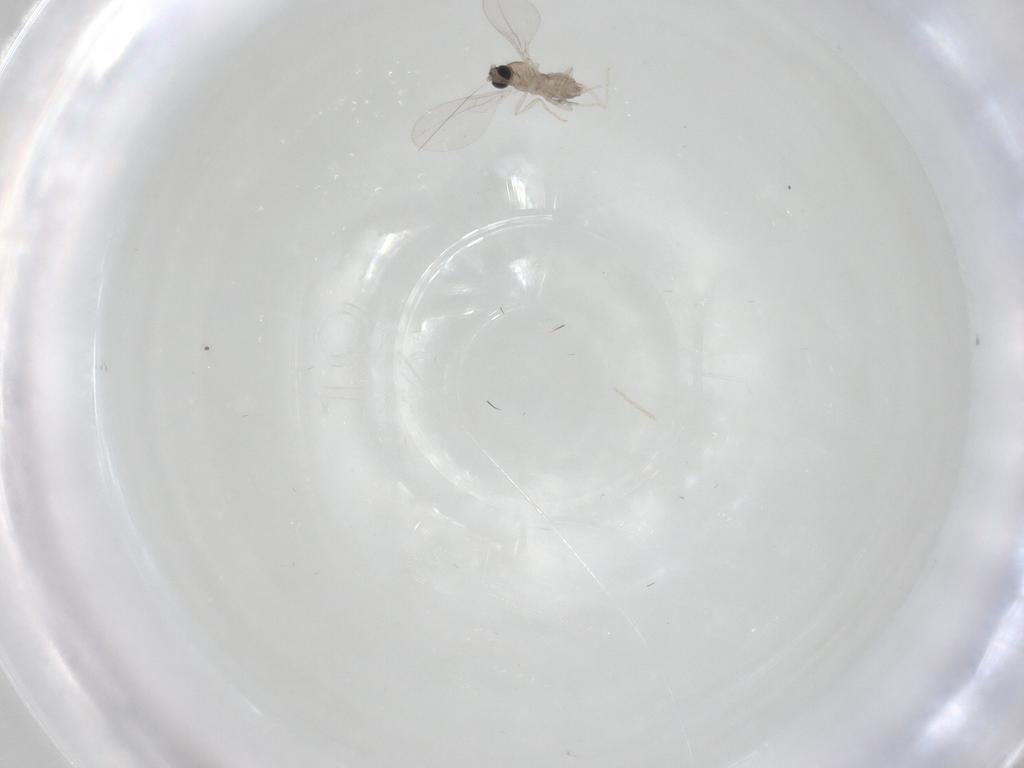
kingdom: Animalia
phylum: Arthropoda
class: Insecta
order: Diptera
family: Cecidomyiidae
